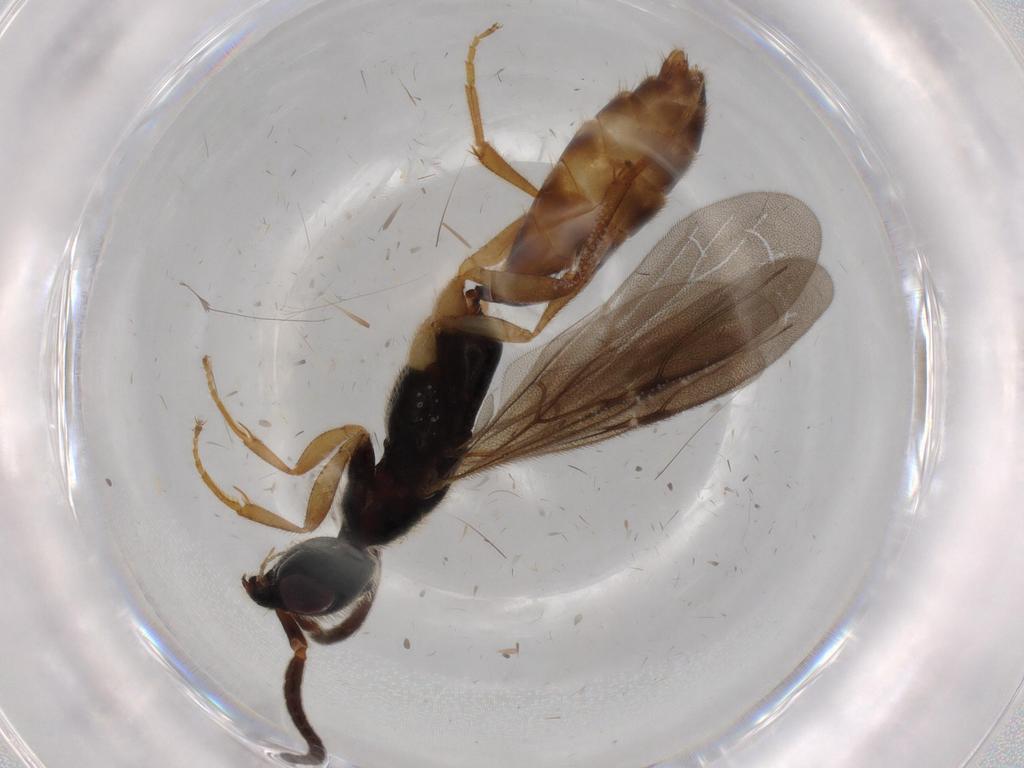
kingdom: Animalia
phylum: Arthropoda
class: Insecta
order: Hymenoptera
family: Bethylidae
